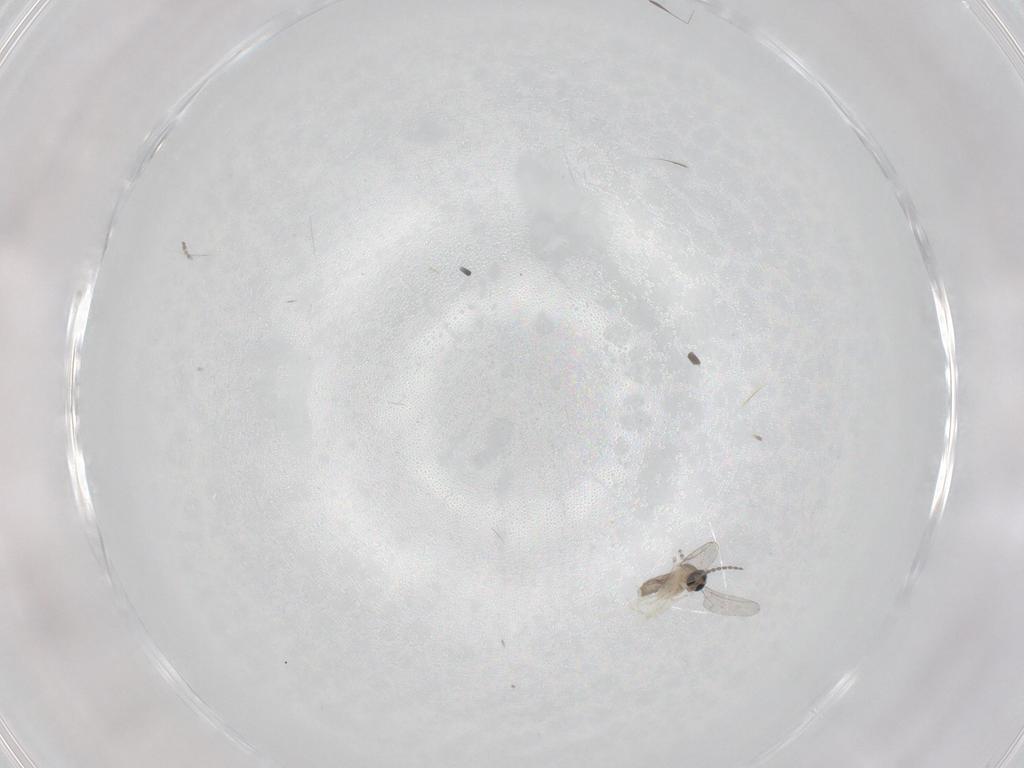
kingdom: Animalia
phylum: Arthropoda
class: Insecta
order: Diptera
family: Cecidomyiidae
